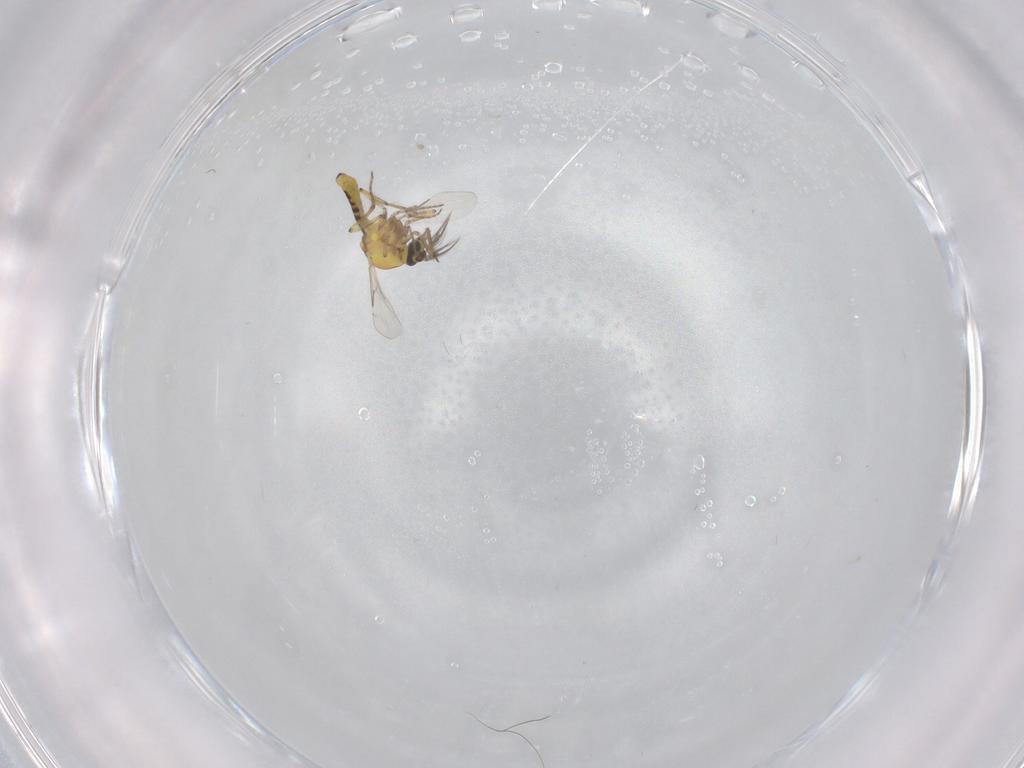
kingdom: Animalia
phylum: Arthropoda
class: Insecta
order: Diptera
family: Ceratopogonidae
